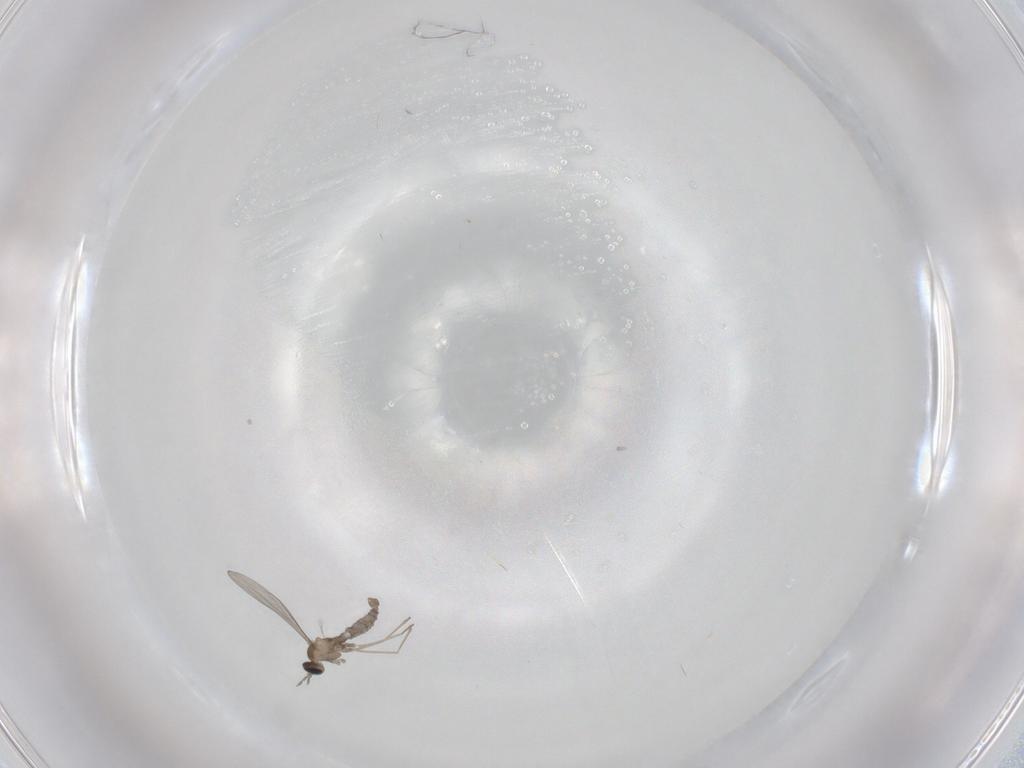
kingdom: Animalia
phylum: Arthropoda
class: Insecta
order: Diptera
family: Cecidomyiidae
